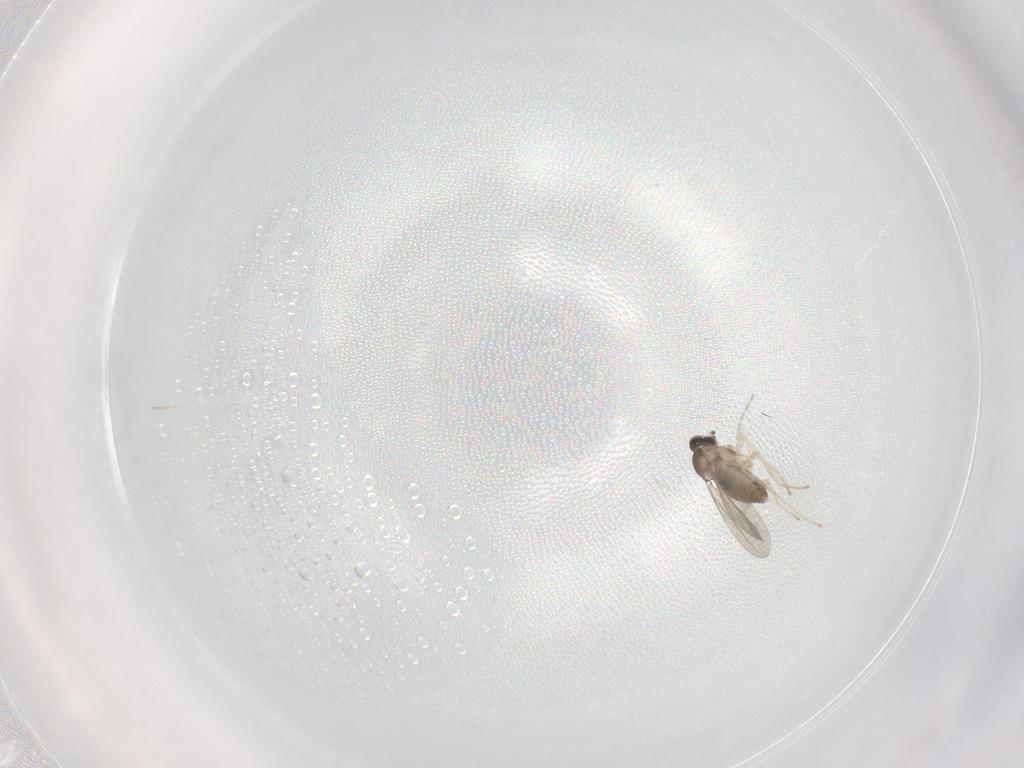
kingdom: Animalia
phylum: Arthropoda
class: Insecta
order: Diptera
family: Cecidomyiidae
